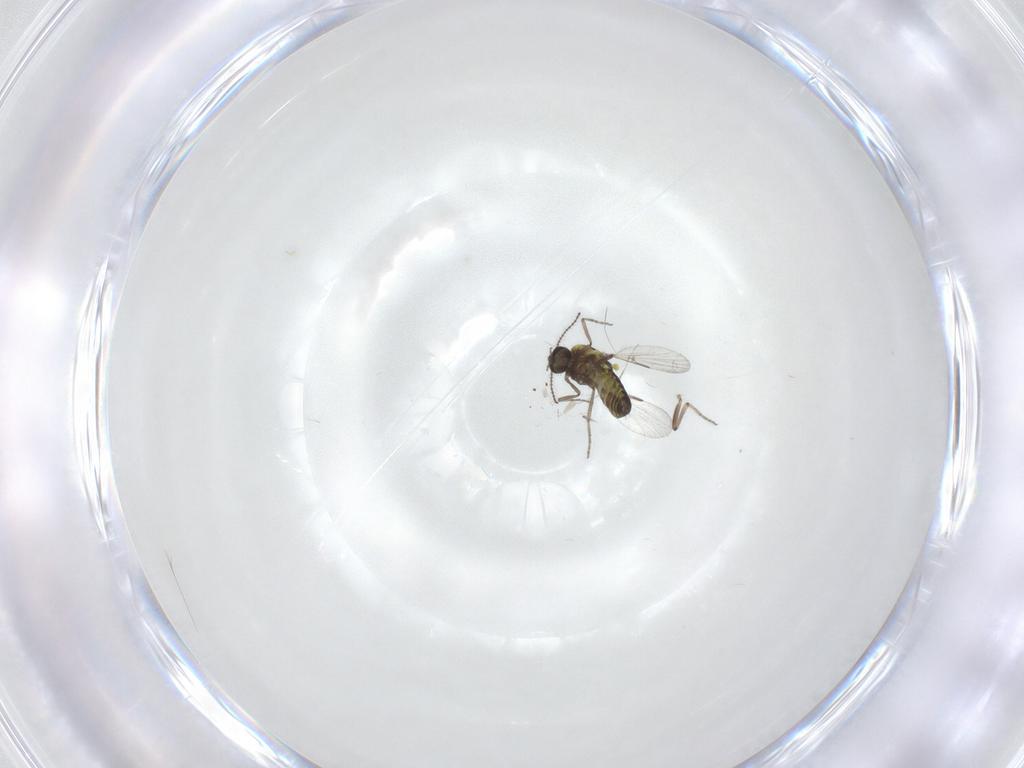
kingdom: Animalia
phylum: Arthropoda
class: Insecta
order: Diptera
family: Ceratopogonidae
